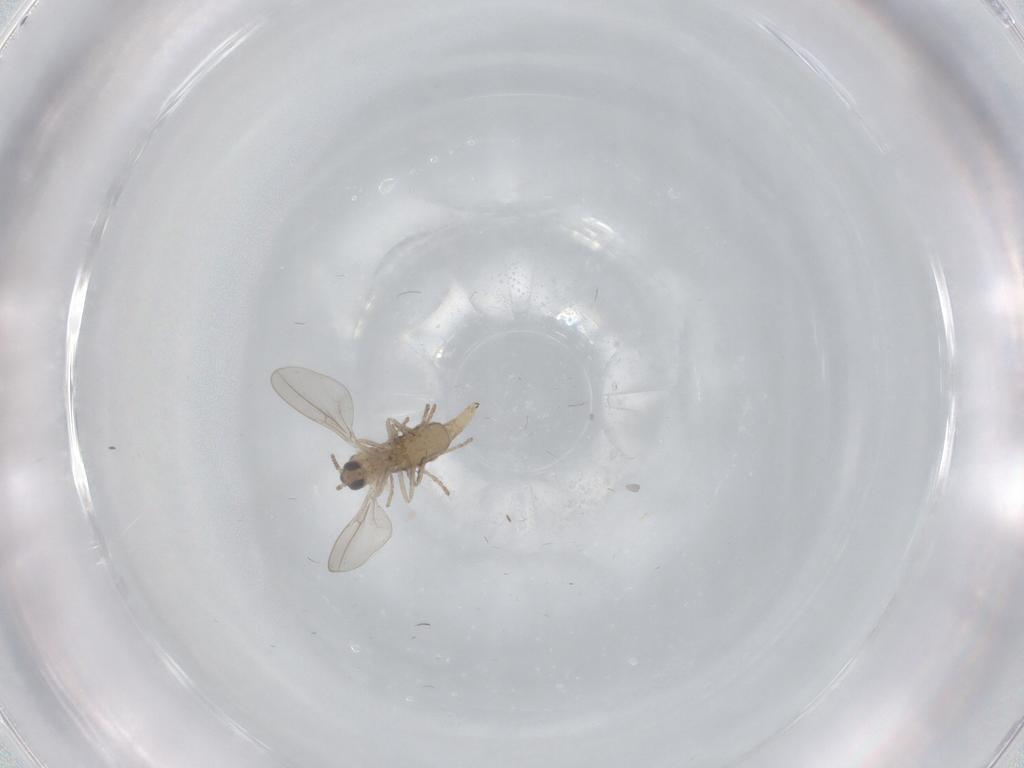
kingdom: Animalia
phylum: Arthropoda
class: Insecta
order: Diptera
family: Cecidomyiidae
